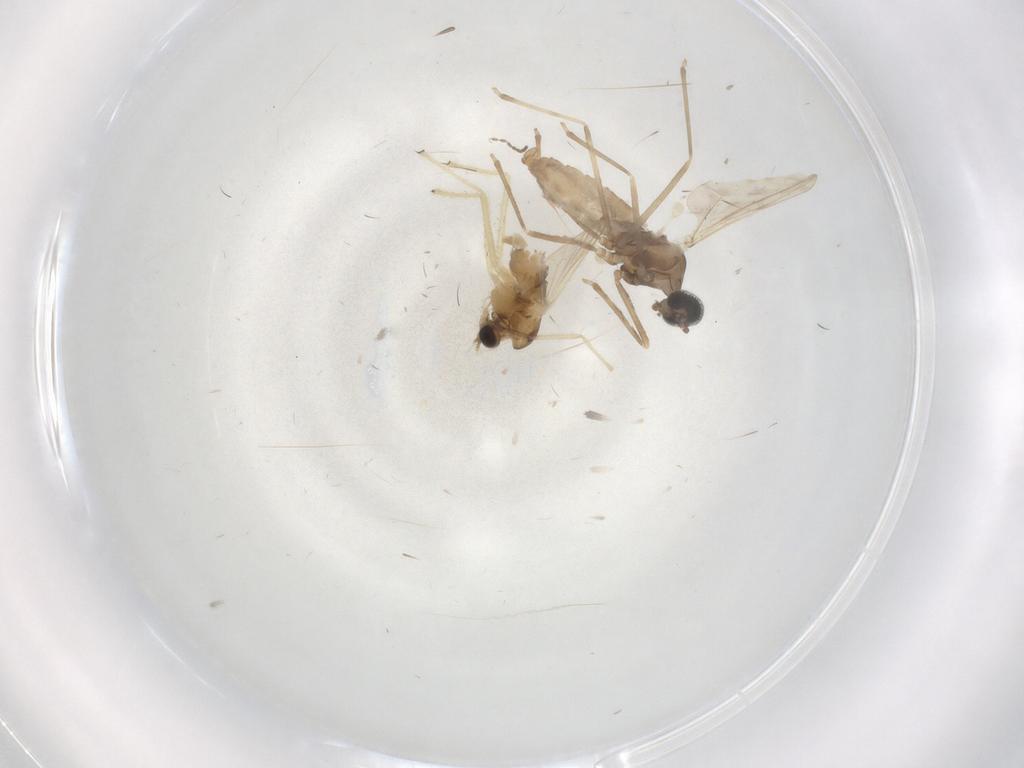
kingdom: Animalia
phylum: Arthropoda
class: Insecta
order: Diptera
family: Chironomidae
